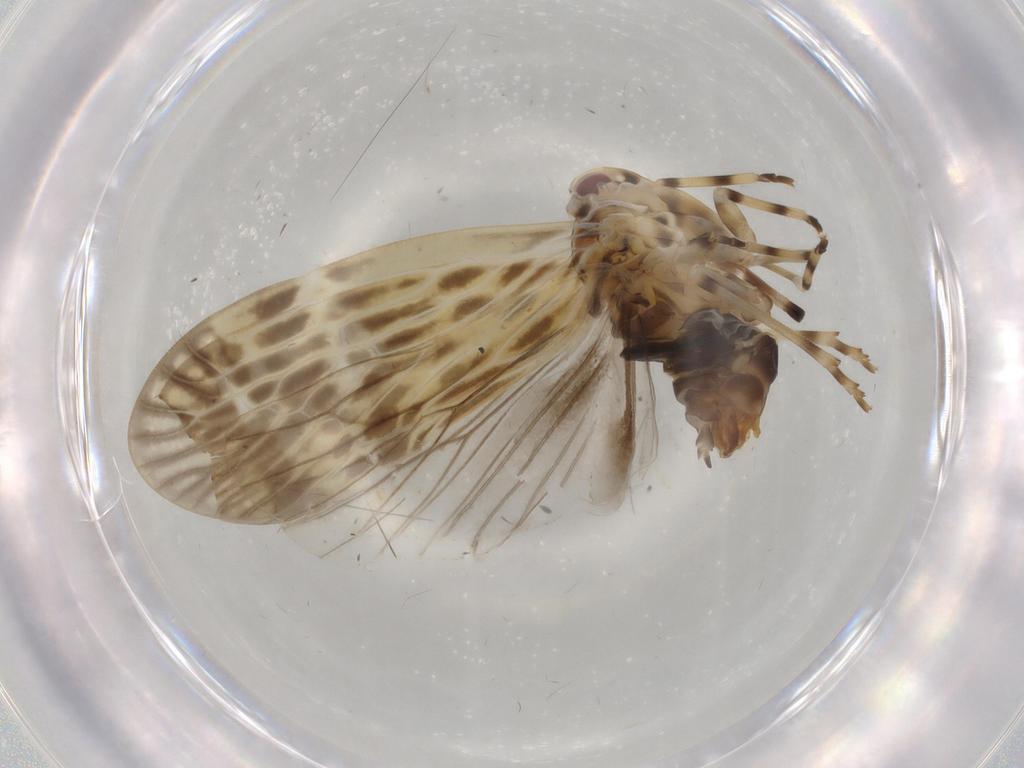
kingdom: Animalia
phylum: Arthropoda
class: Insecta
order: Hemiptera
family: Derbidae
